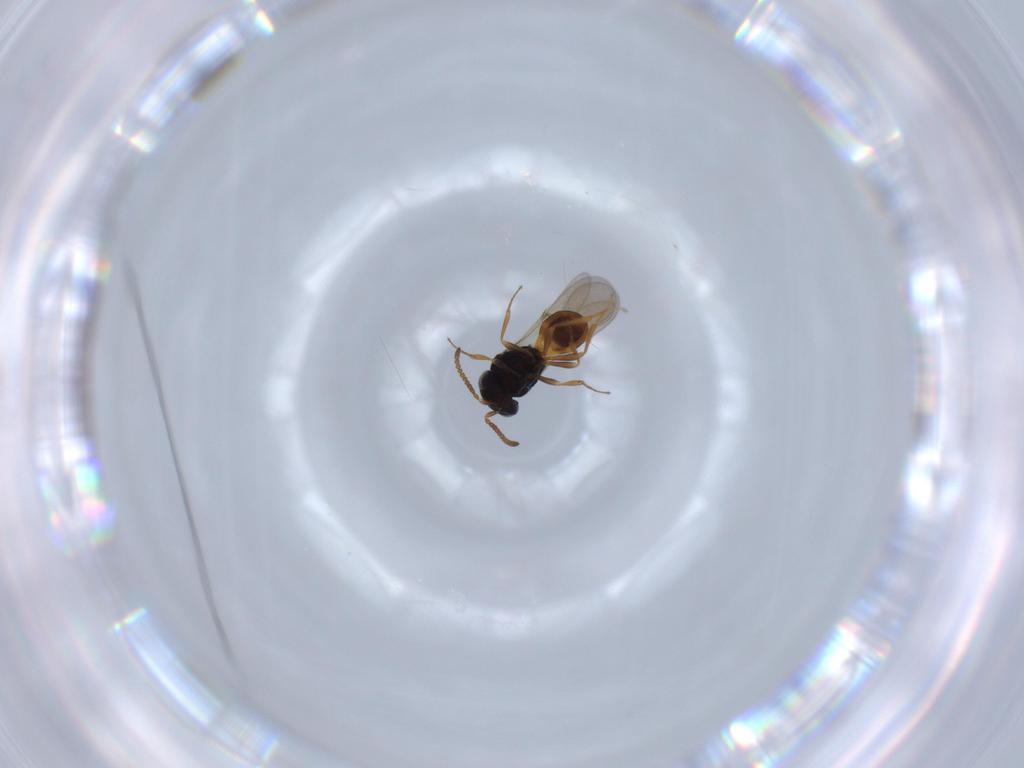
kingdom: Animalia
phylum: Arthropoda
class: Insecta
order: Hymenoptera
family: Scelionidae
